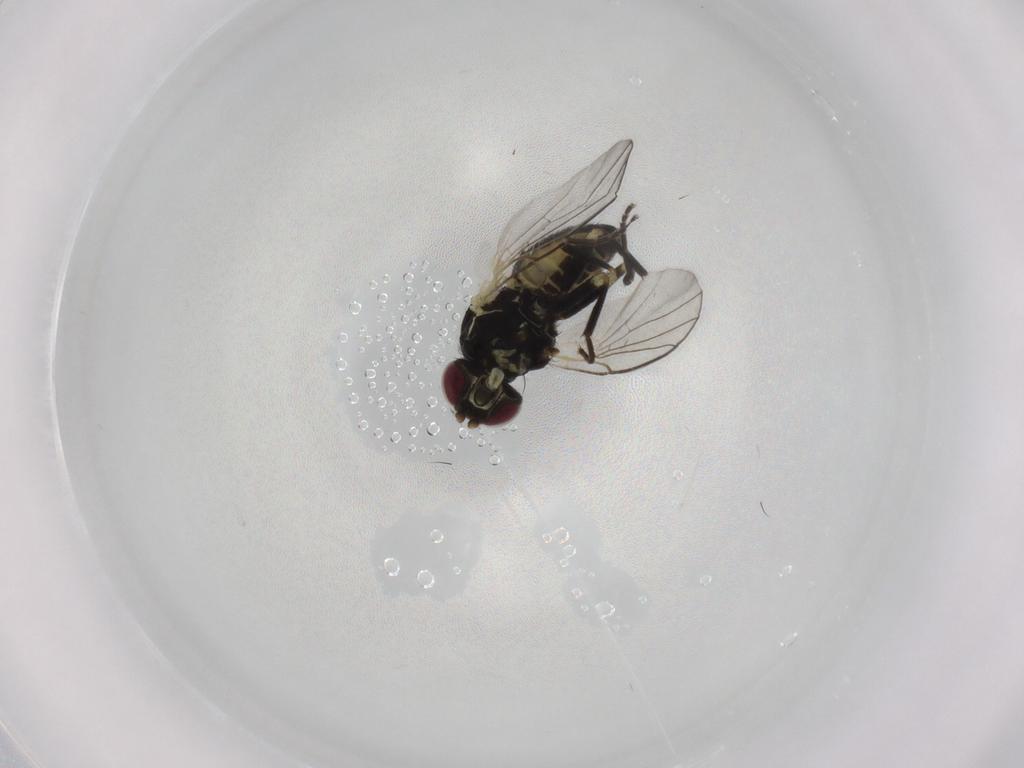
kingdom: Animalia
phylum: Arthropoda
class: Insecta
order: Diptera
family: Agromyzidae
